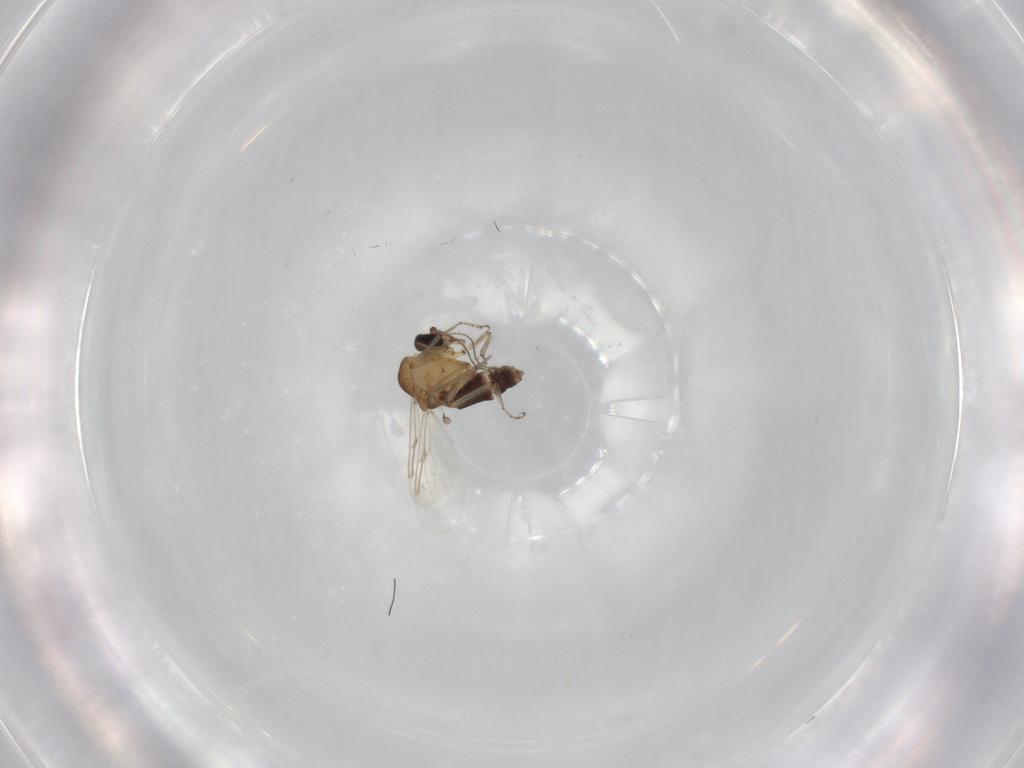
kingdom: Animalia
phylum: Arthropoda
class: Insecta
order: Diptera
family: Ceratopogonidae
